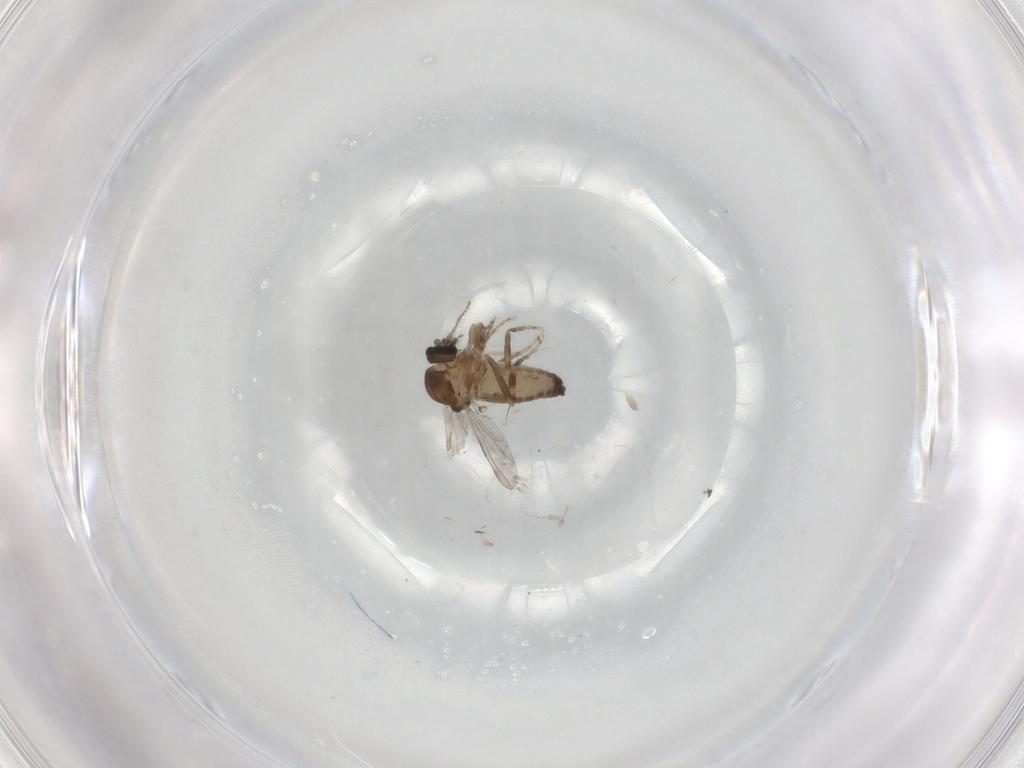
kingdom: Animalia
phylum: Arthropoda
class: Insecta
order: Diptera
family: Ceratopogonidae
